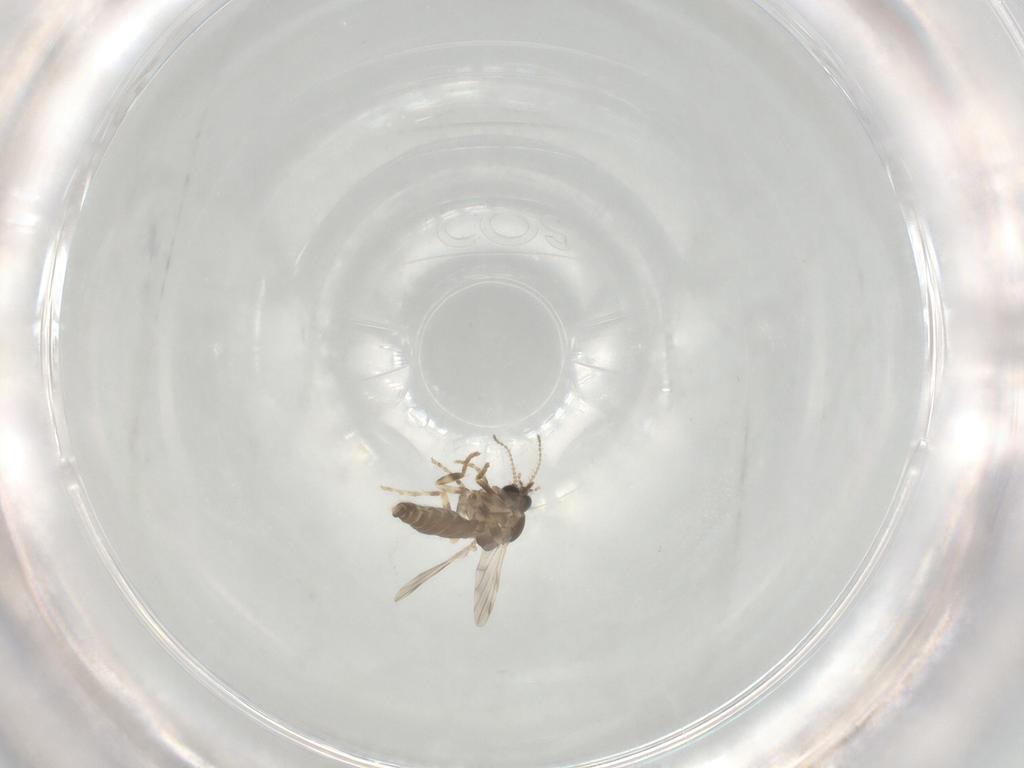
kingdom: Animalia
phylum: Arthropoda
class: Insecta
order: Diptera
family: Ceratopogonidae
